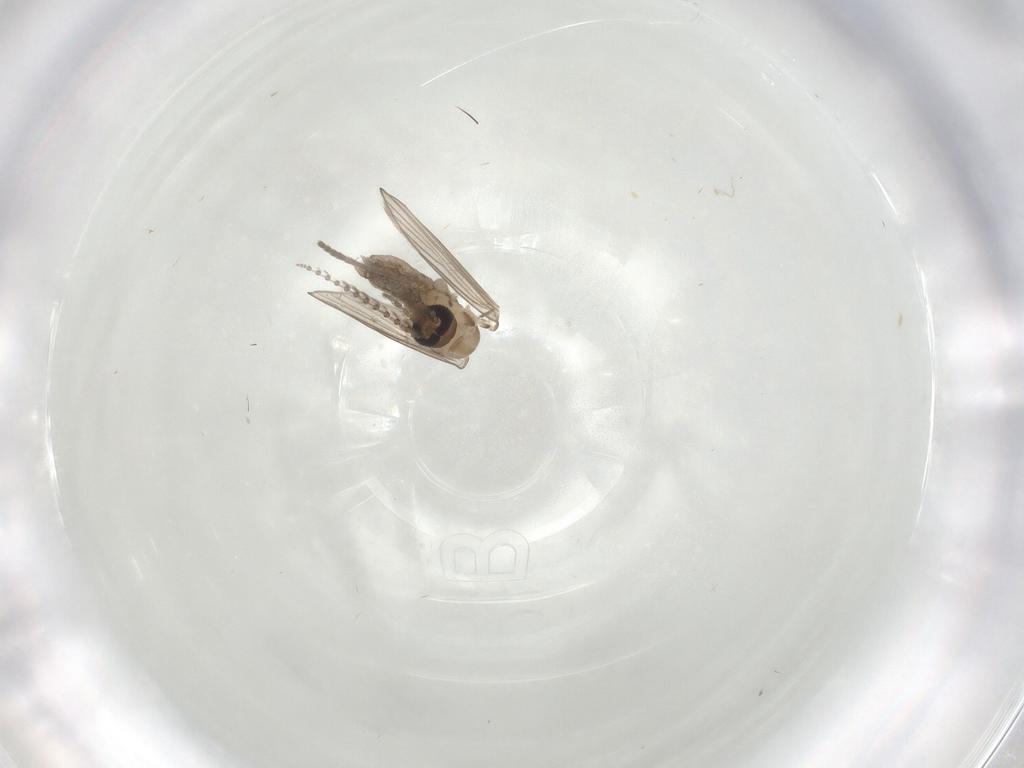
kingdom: Animalia
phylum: Arthropoda
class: Insecta
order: Diptera
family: Psychodidae
